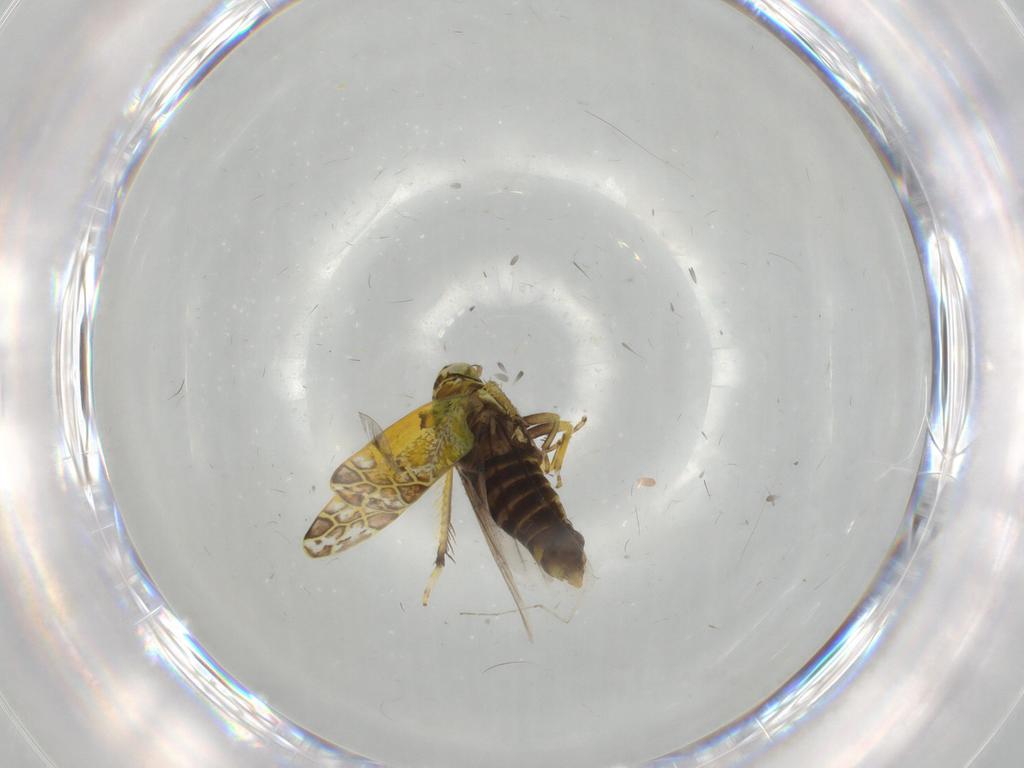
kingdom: Animalia
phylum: Arthropoda
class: Insecta
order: Hemiptera
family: Cicadellidae
